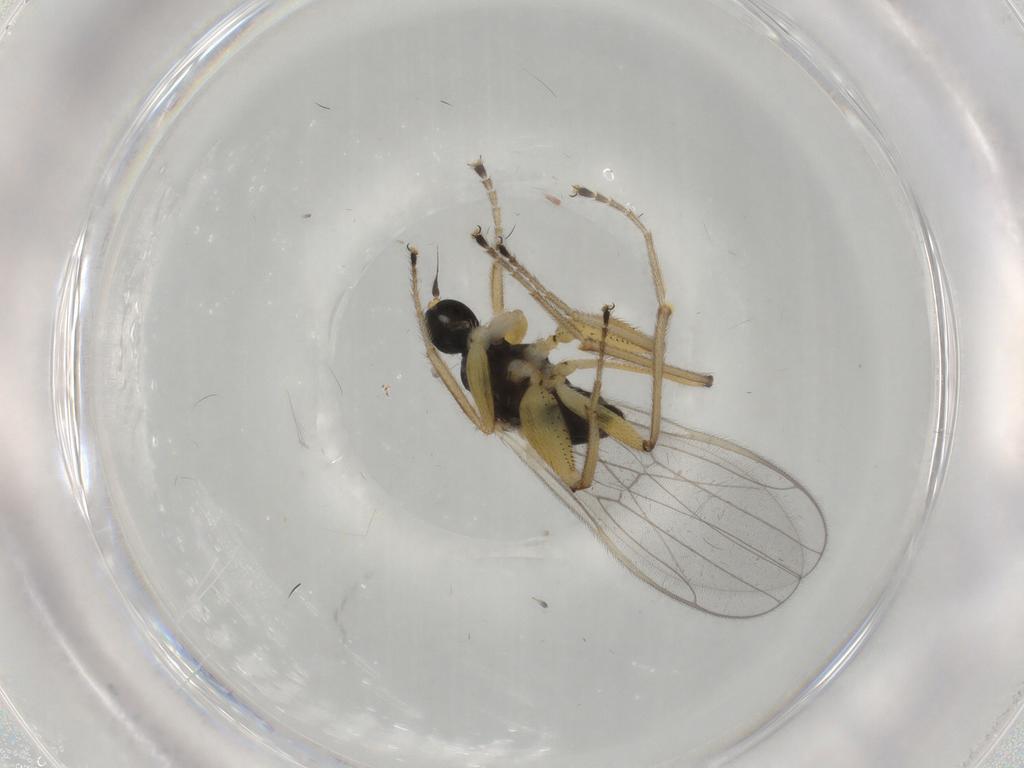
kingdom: Animalia
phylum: Arthropoda
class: Insecta
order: Diptera
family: Hybotidae
